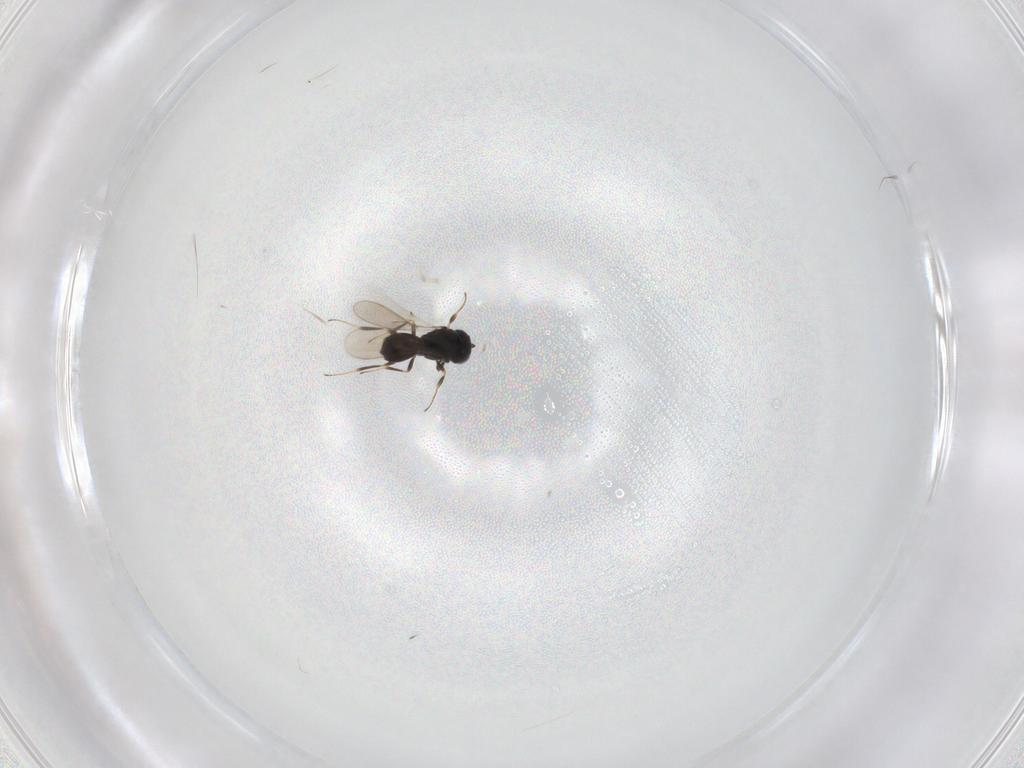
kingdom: Animalia
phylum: Arthropoda
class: Insecta
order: Hymenoptera
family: Scelionidae
